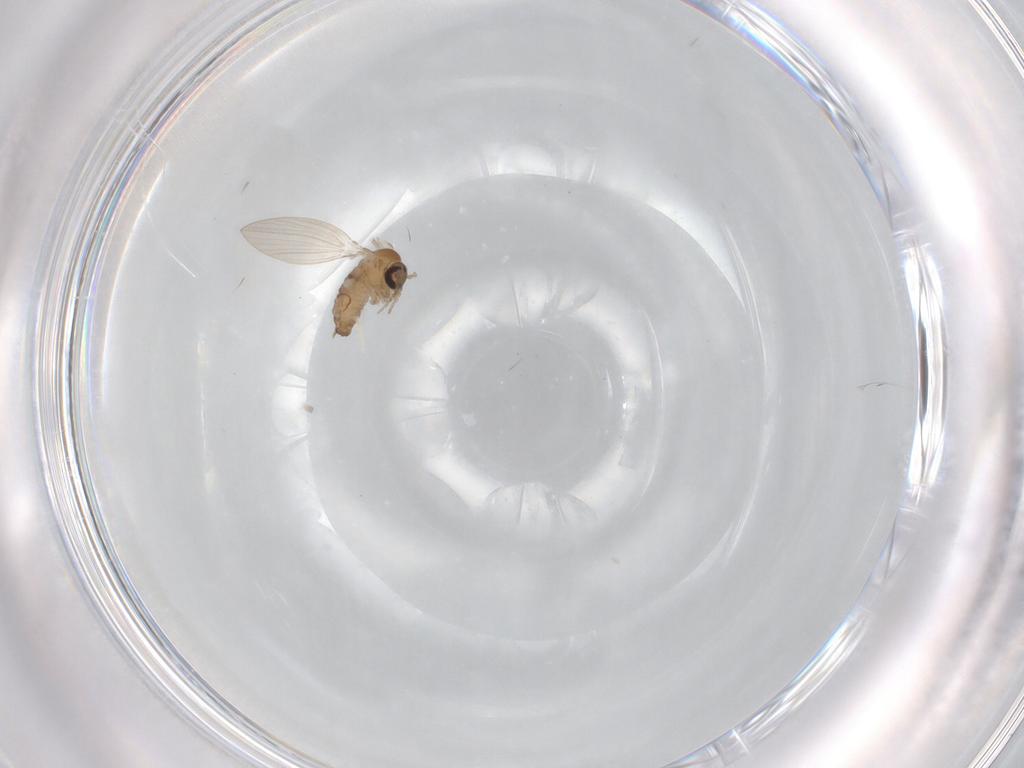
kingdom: Animalia
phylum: Arthropoda
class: Insecta
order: Diptera
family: Psychodidae
